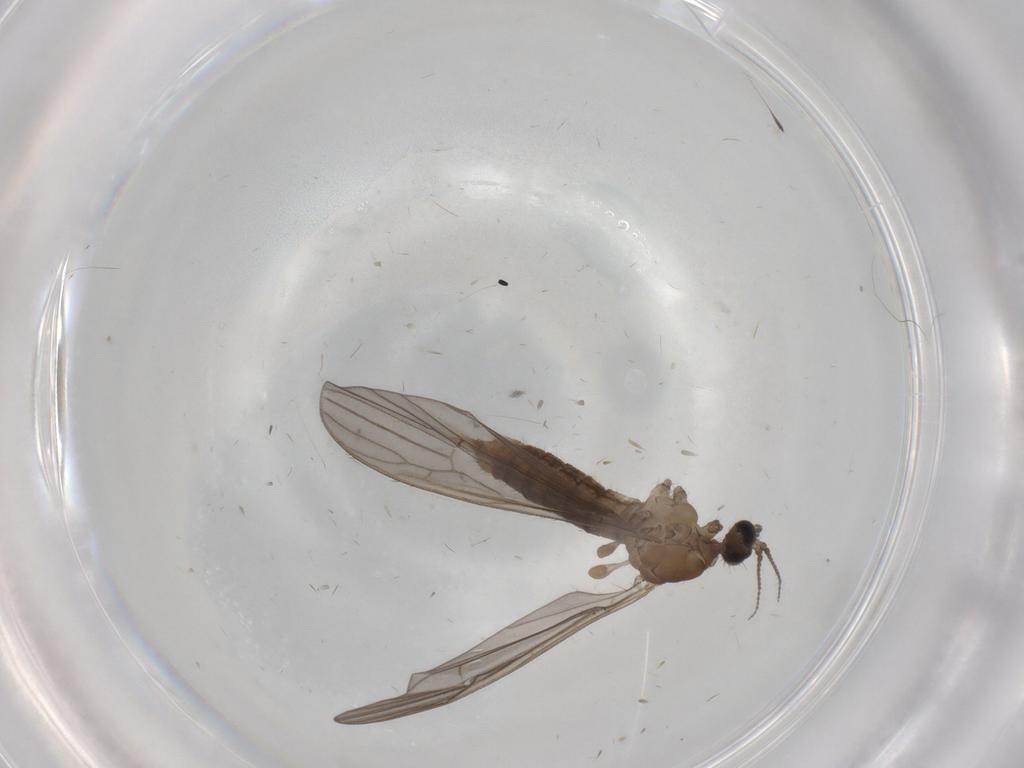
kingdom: Animalia
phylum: Arthropoda
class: Insecta
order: Diptera
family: Limoniidae
